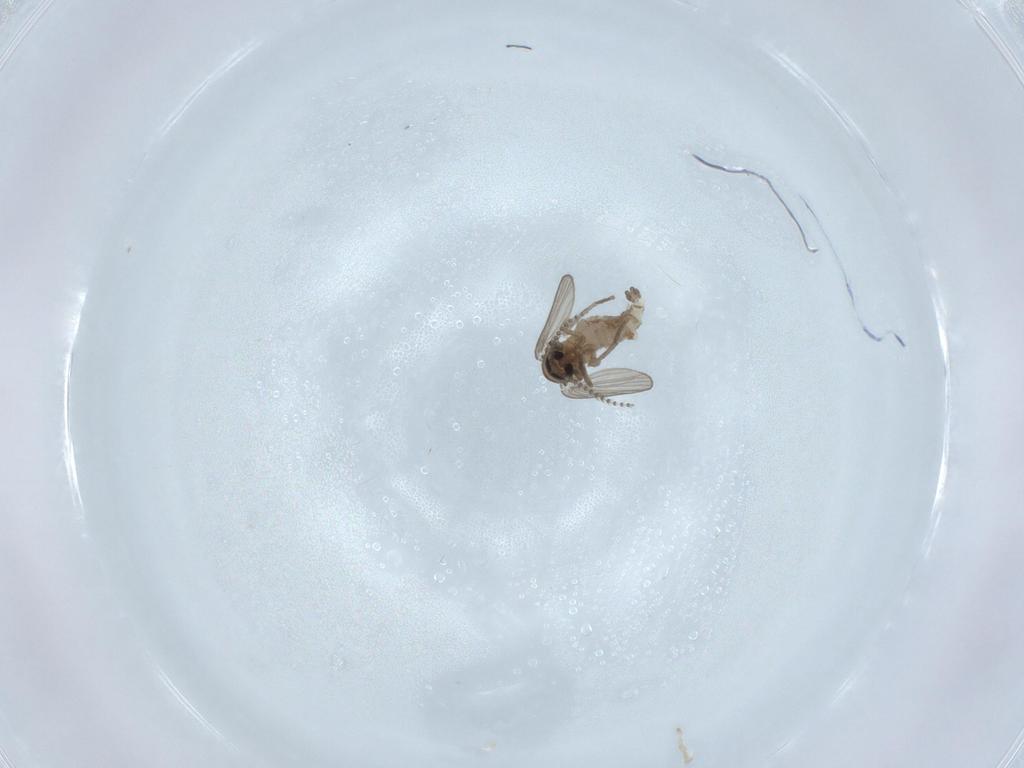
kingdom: Animalia
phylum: Arthropoda
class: Insecta
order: Diptera
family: Psychodidae
